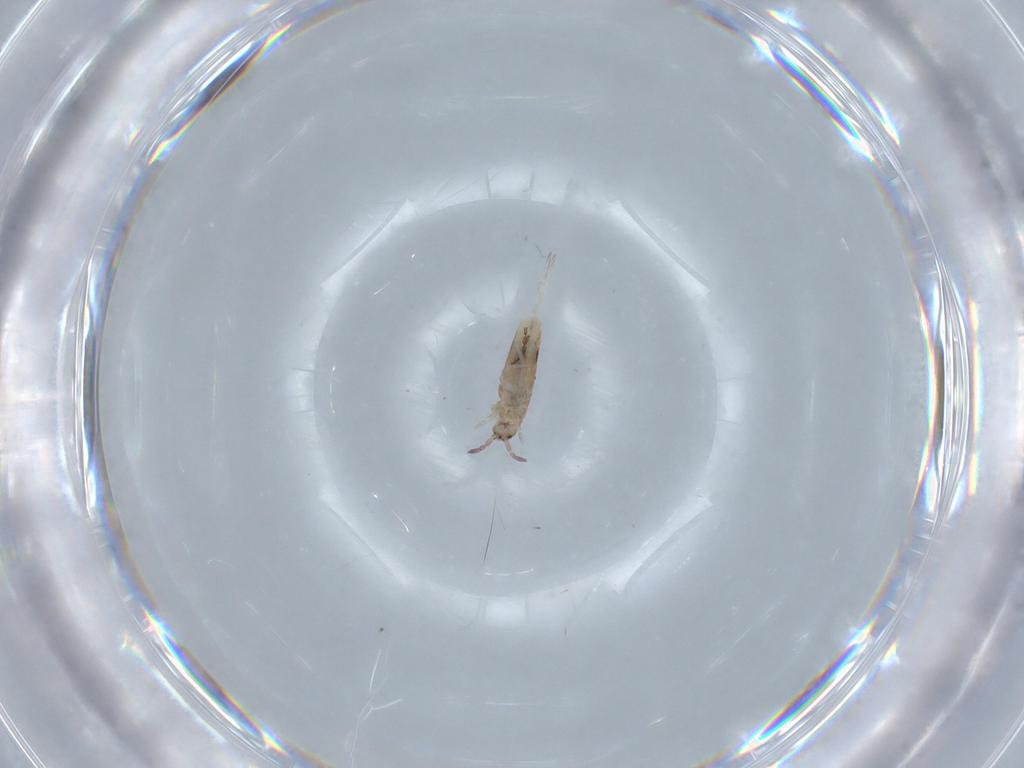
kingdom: Animalia
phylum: Arthropoda
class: Collembola
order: Entomobryomorpha
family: Entomobryidae
